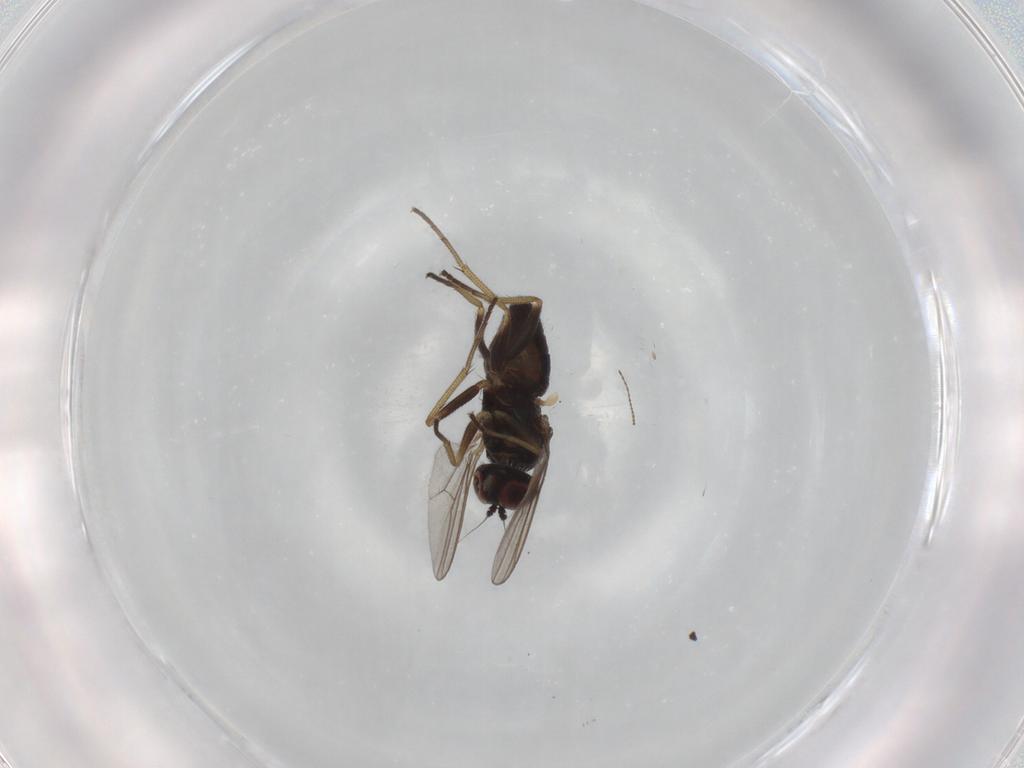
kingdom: Animalia
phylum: Arthropoda
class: Insecta
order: Diptera
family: Dolichopodidae
